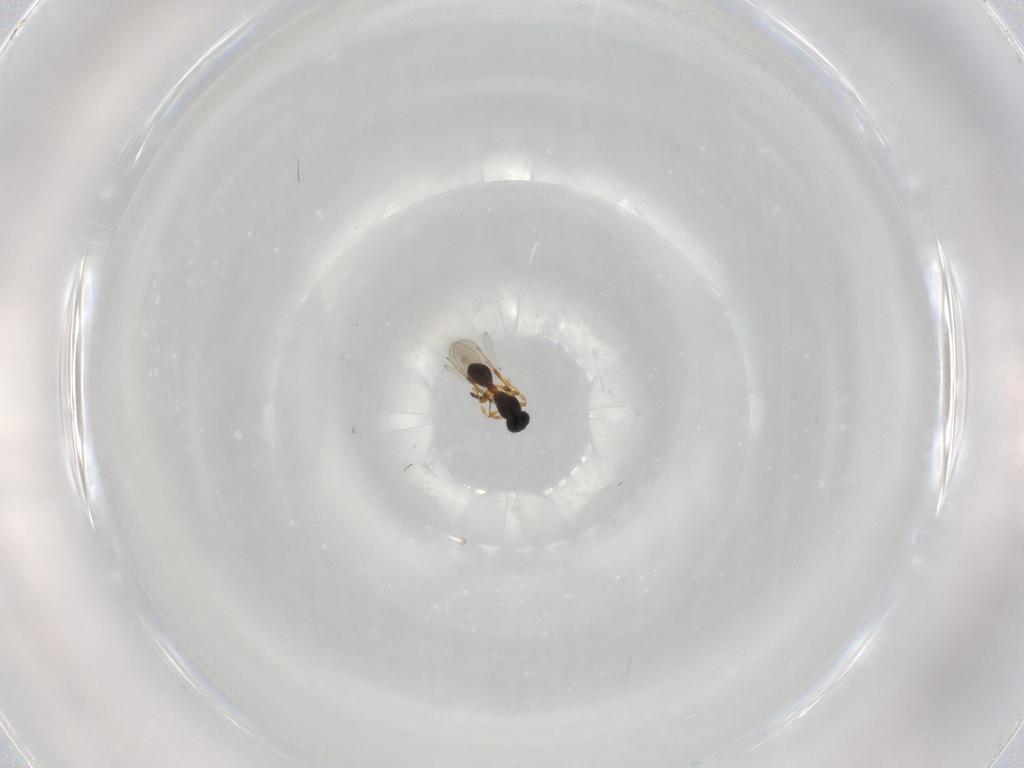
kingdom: Animalia
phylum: Arthropoda
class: Insecta
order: Hymenoptera
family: Platygastridae
